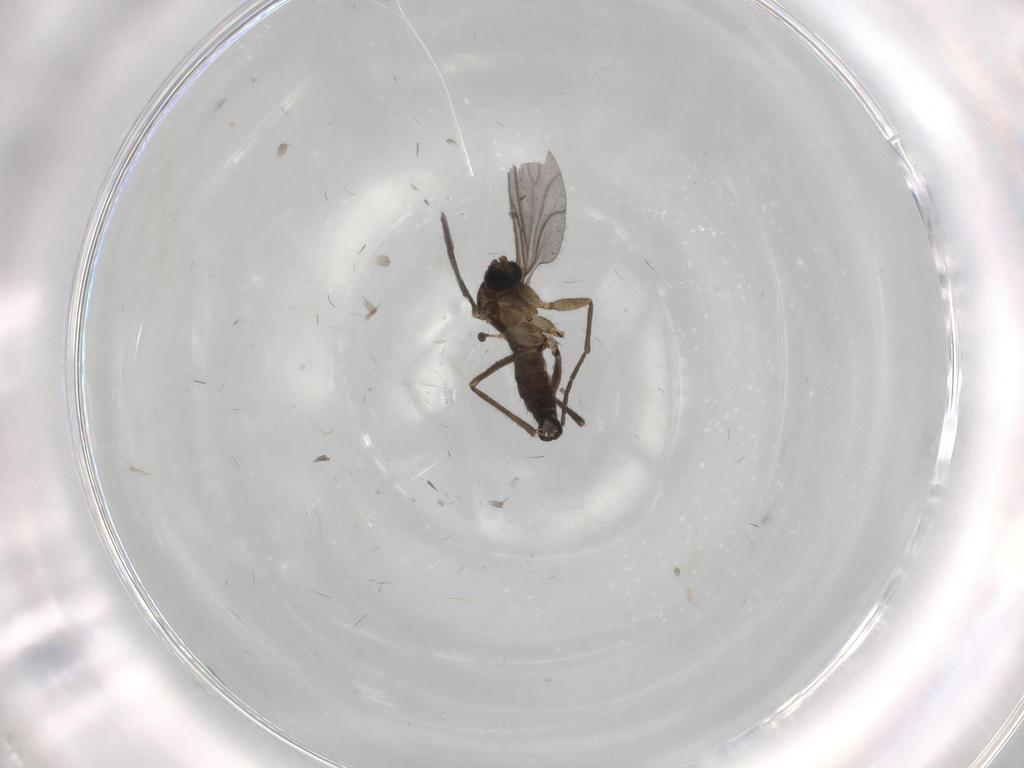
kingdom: Animalia
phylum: Arthropoda
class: Insecta
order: Diptera
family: Sciaridae
